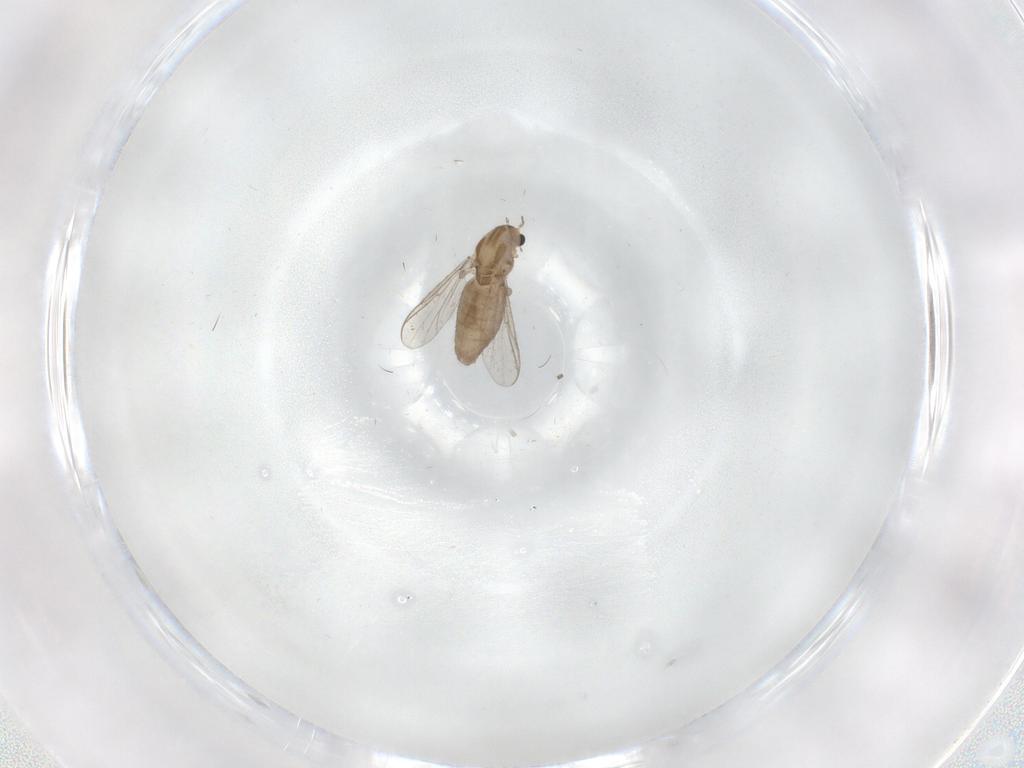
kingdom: Animalia
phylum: Arthropoda
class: Insecta
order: Diptera
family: Chironomidae
